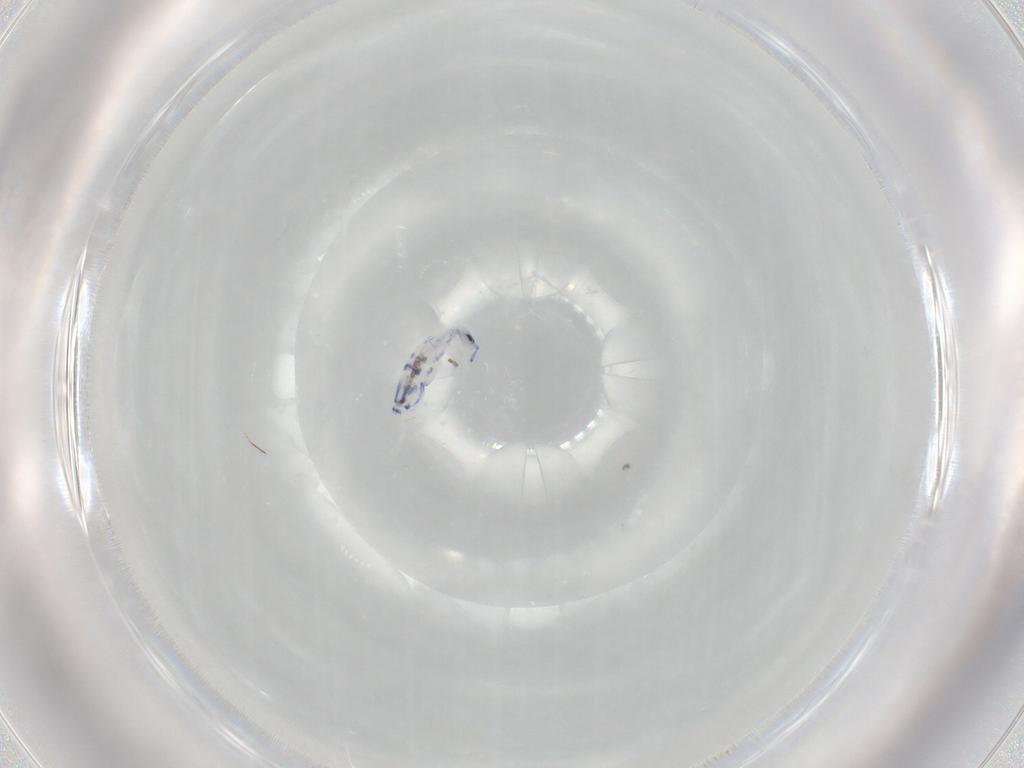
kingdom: Animalia
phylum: Arthropoda
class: Collembola
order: Entomobryomorpha
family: Entomobryidae
